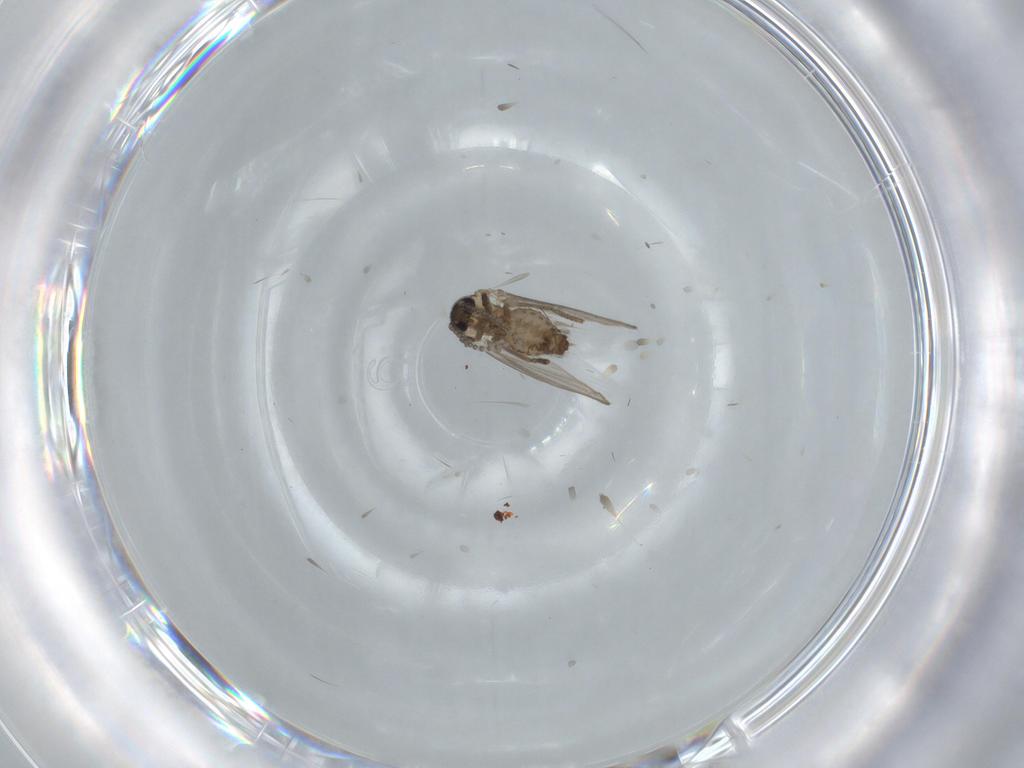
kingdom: Animalia
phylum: Arthropoda
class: Insecta
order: Diptera
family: Psychodidae
